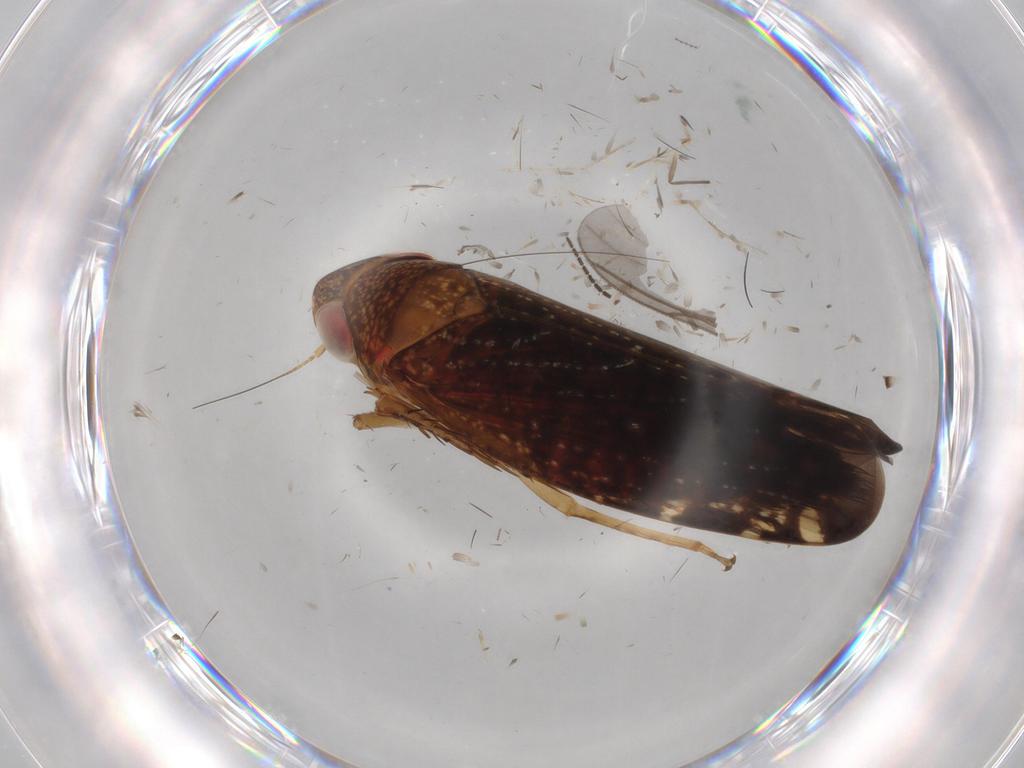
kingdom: Animalia
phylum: Arthropoda
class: Insecta
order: Hemiptera
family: Cicadellidae
